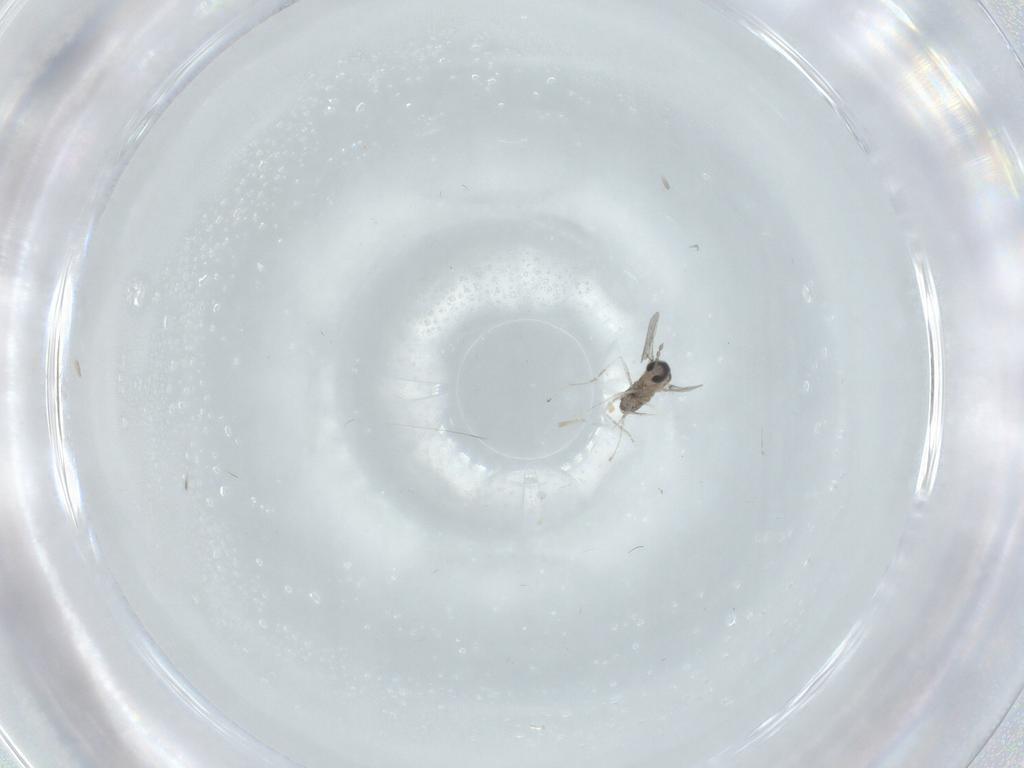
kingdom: Animalia
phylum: Arthropoda
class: Insecta
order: Diptera
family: Cecidomyiidae
